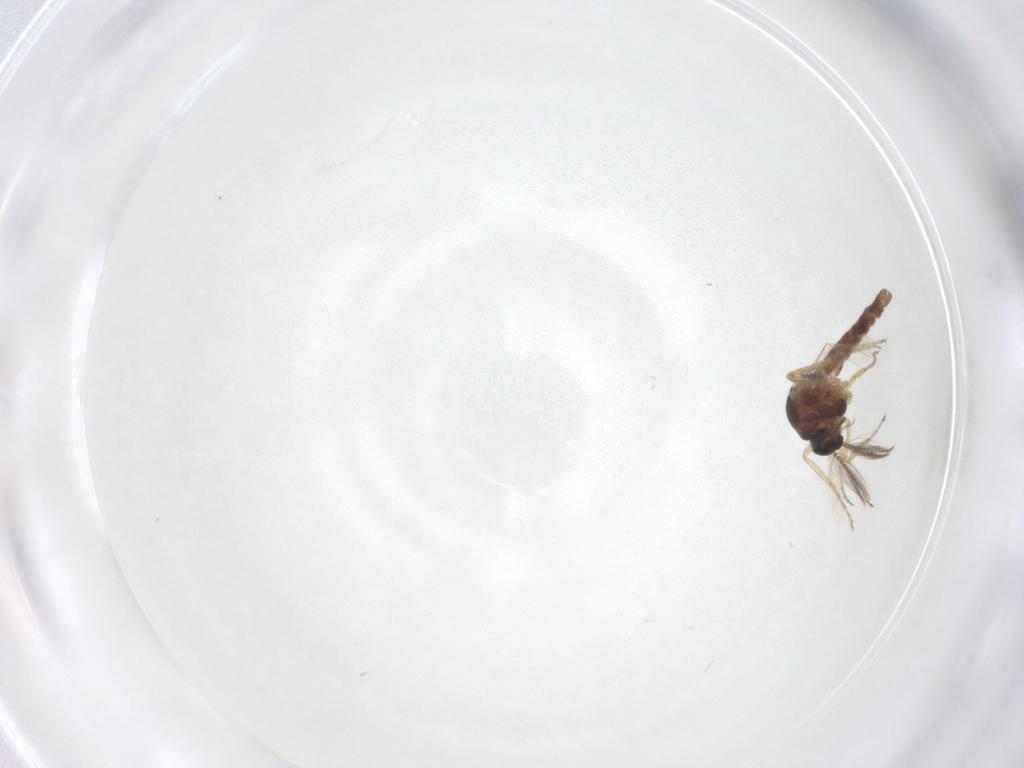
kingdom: Animalia
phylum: Arthropoda
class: Insecta
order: Diptera
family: Ceratopogonidae
